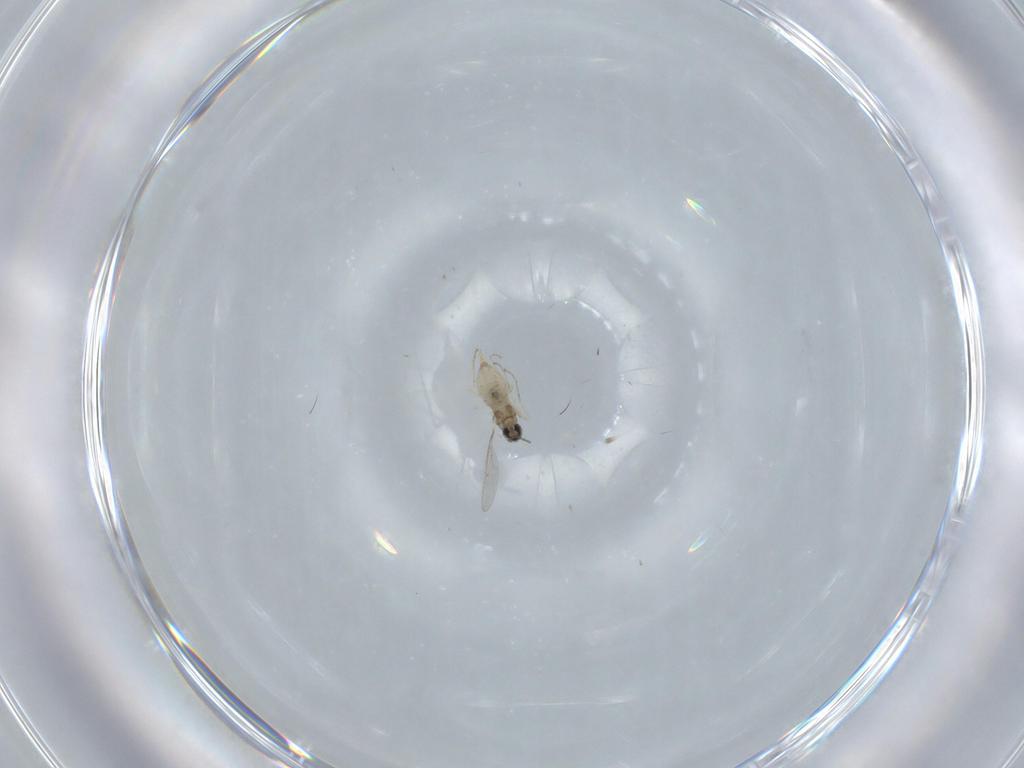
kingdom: Animalia
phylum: Arthropoda
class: Insecta
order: Diptera
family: Cecidomyiidae
